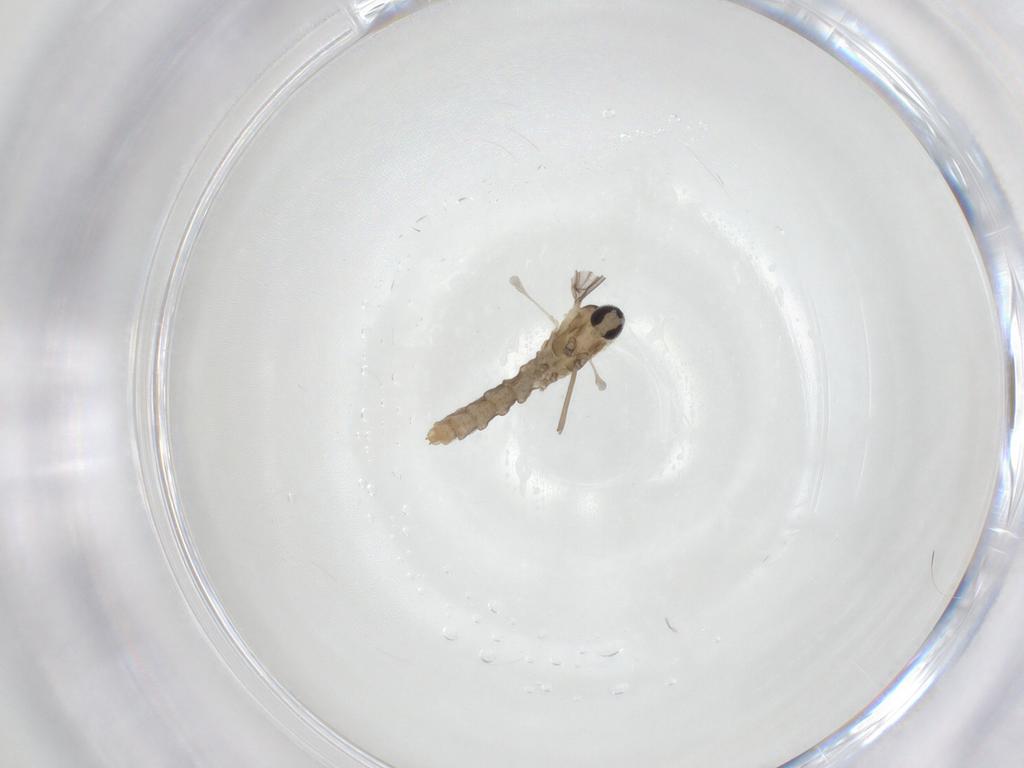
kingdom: Animalia
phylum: Arthropoda
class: Insecta
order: Diptera
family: Cecidomyiidae
